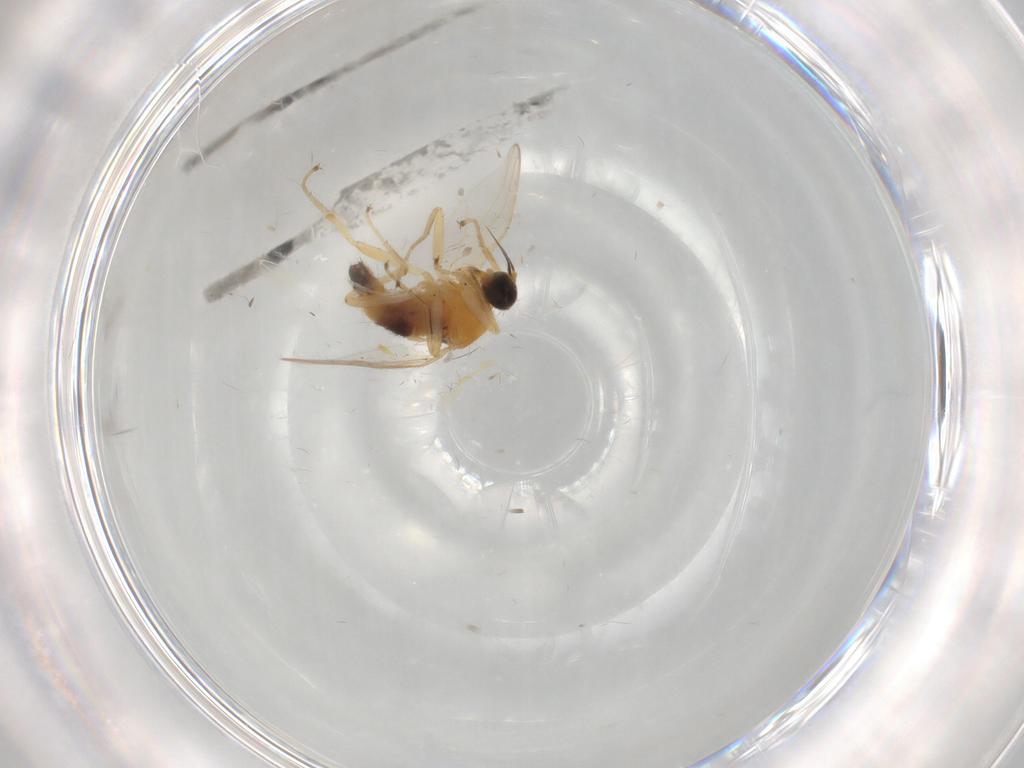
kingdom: Animalia
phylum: Arthropoda
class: Insecta
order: Diptera
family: Hybotidae
